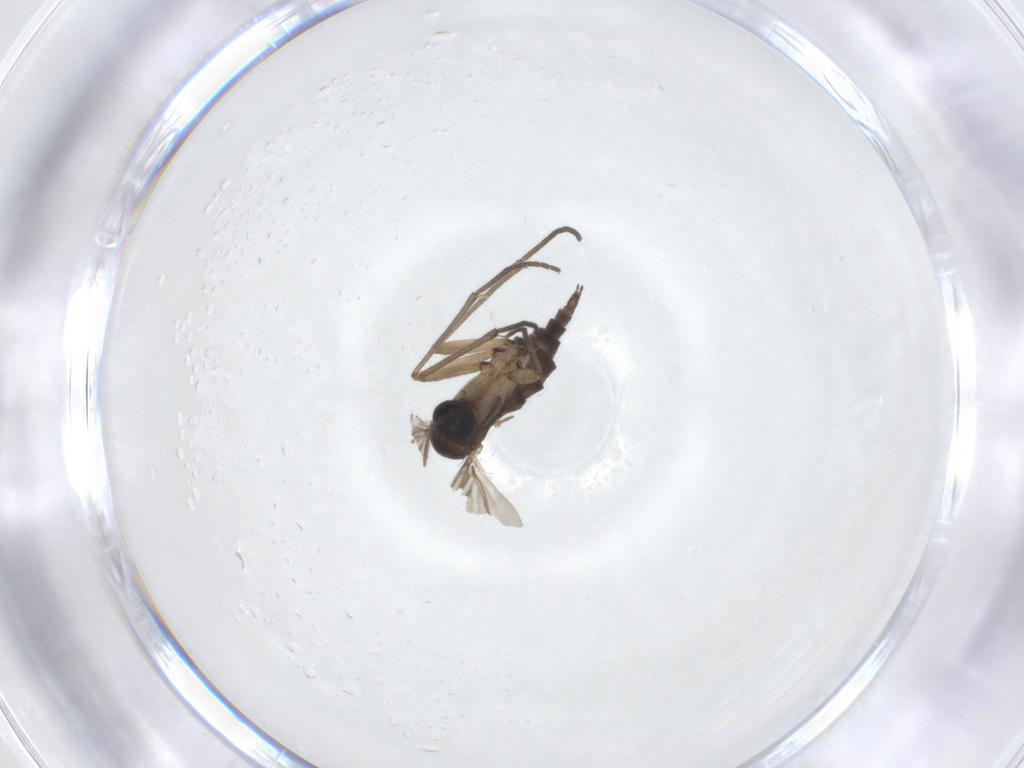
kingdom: Animalia
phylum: Arthropoda
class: Insecta
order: Diptera
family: Sciaridae
